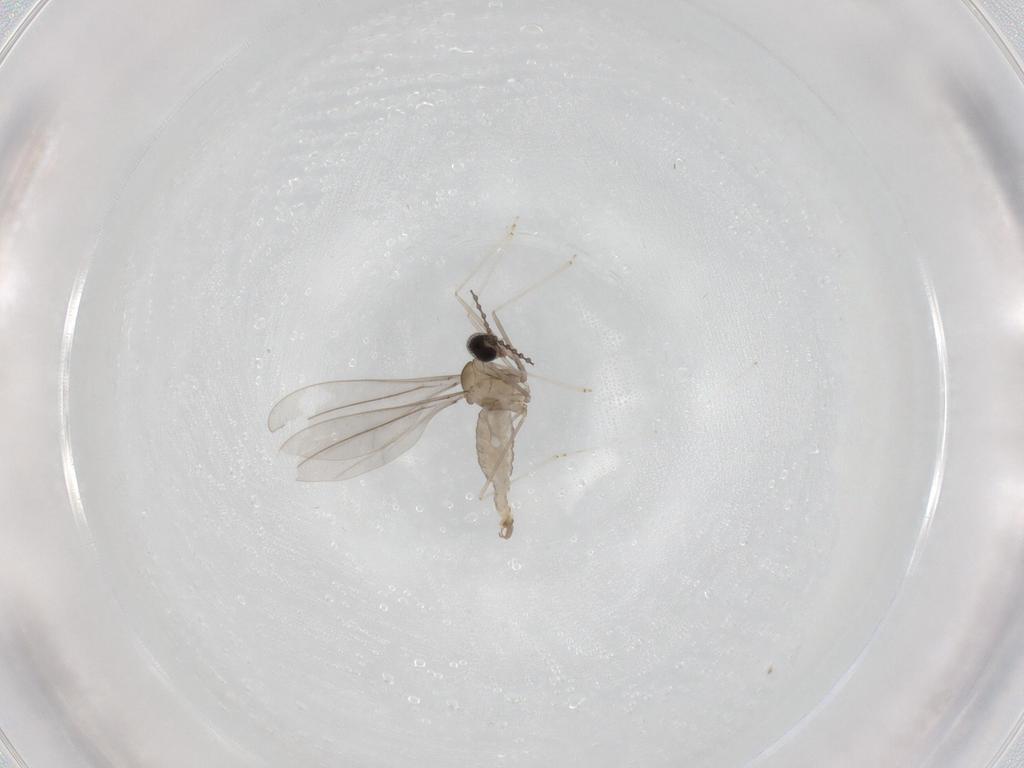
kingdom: Animalia
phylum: Arthropoda
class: Insecta
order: Diptera
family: Cecidomyiidae
